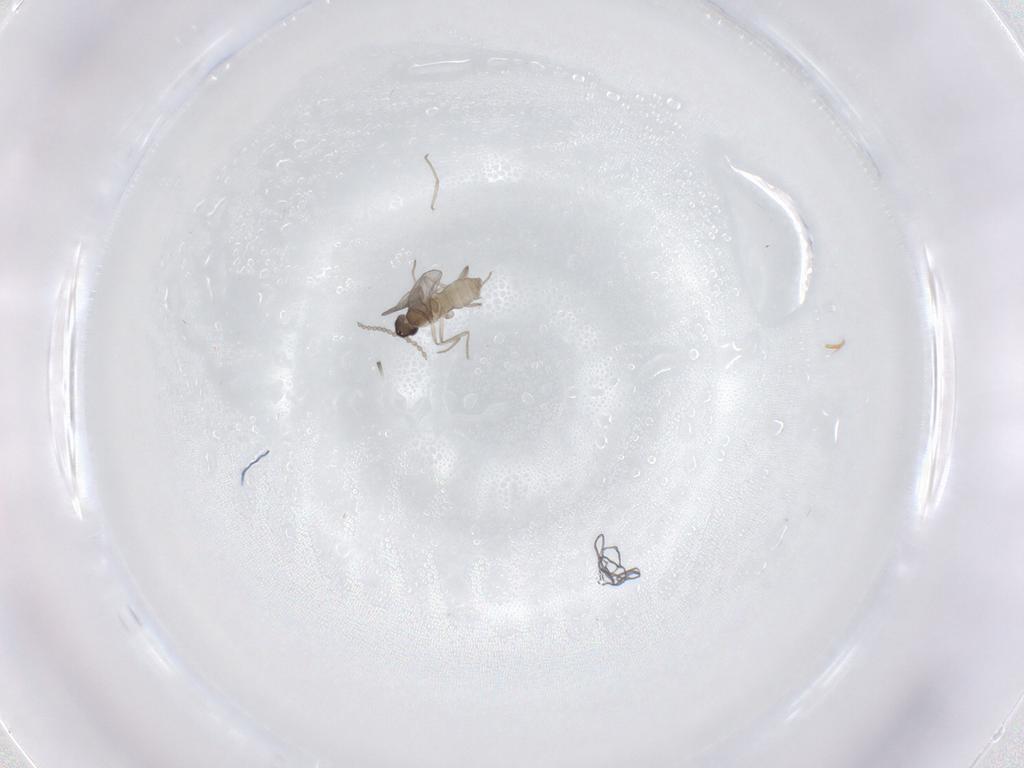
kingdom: Animalia
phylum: Arthropoda
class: Insecta
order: Diptera
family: Cecidomyiidae
